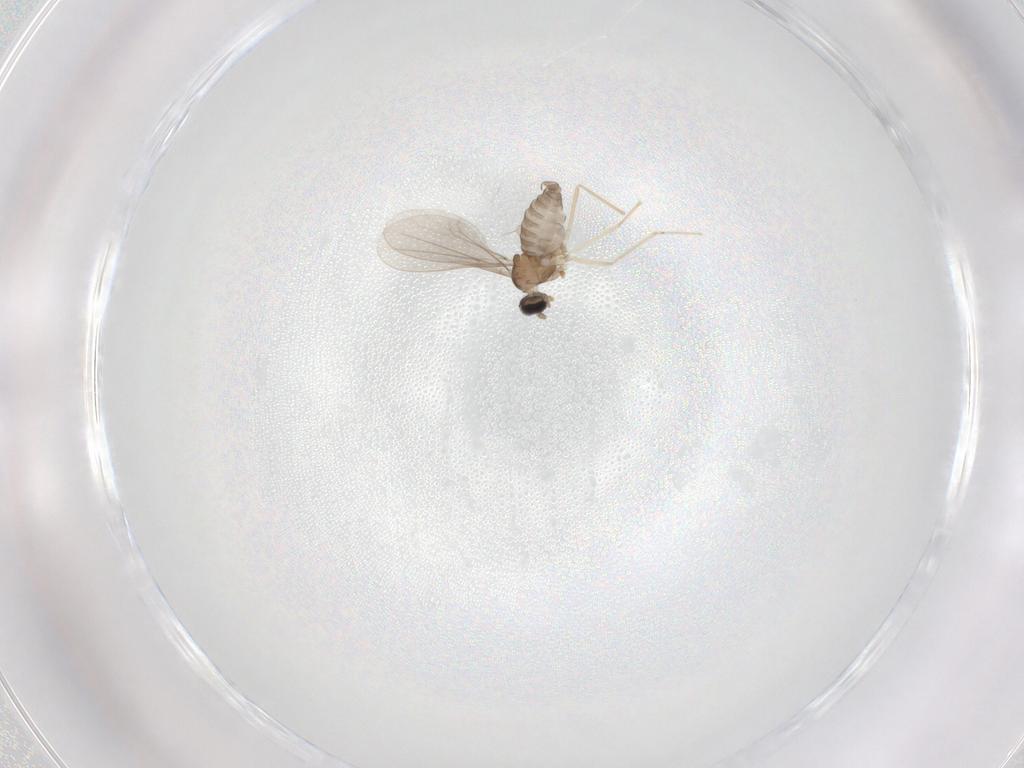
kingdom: Animalia
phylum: Arthropoda
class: Insecta
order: Diptera
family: Cecidomyiidae
